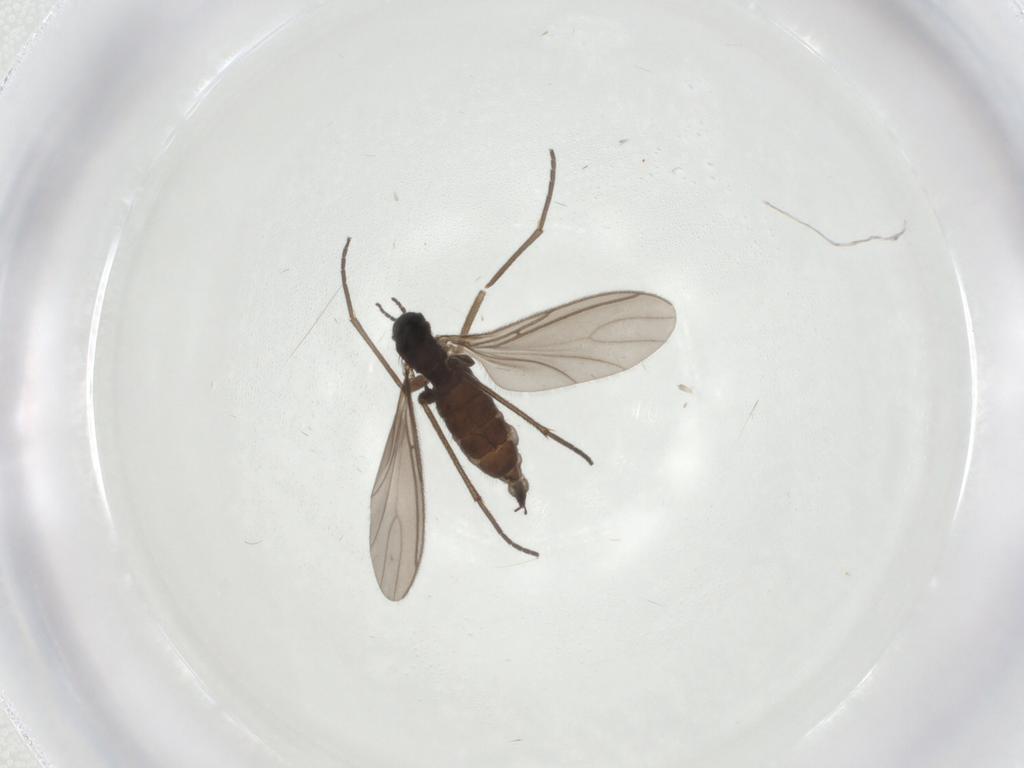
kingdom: Animalia
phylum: Arthropoda
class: Insecta
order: Diptera
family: Sciaridae
